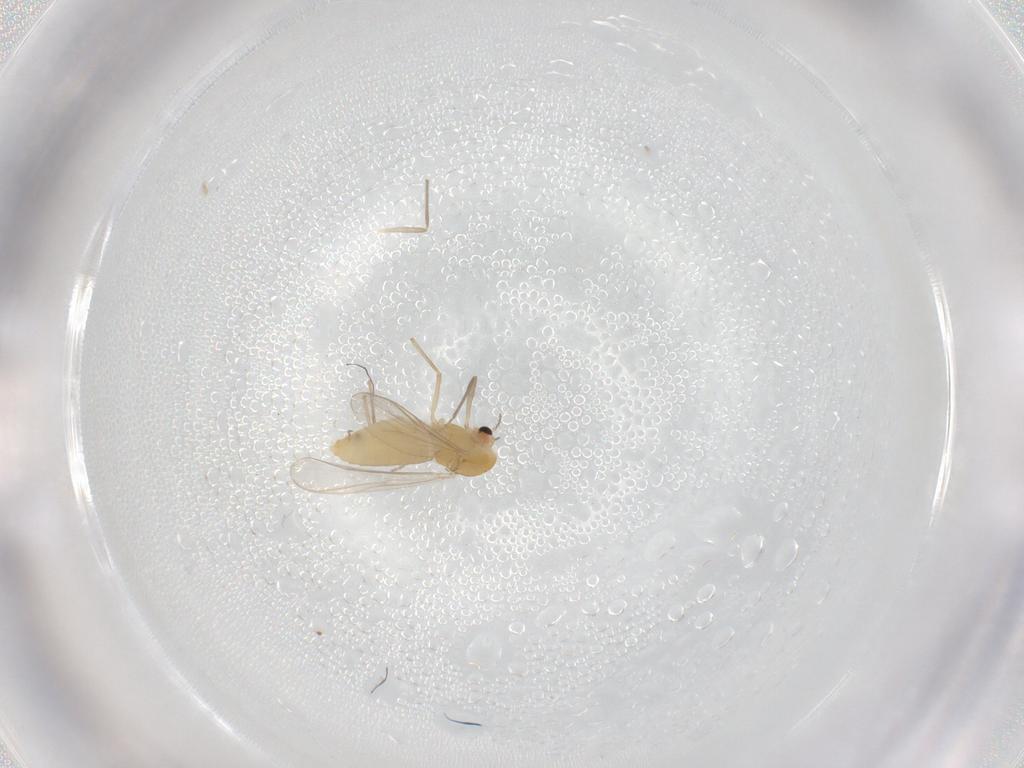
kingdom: Animalia
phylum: Arthropoda
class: Insecta
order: Diptera
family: Chironomidae
